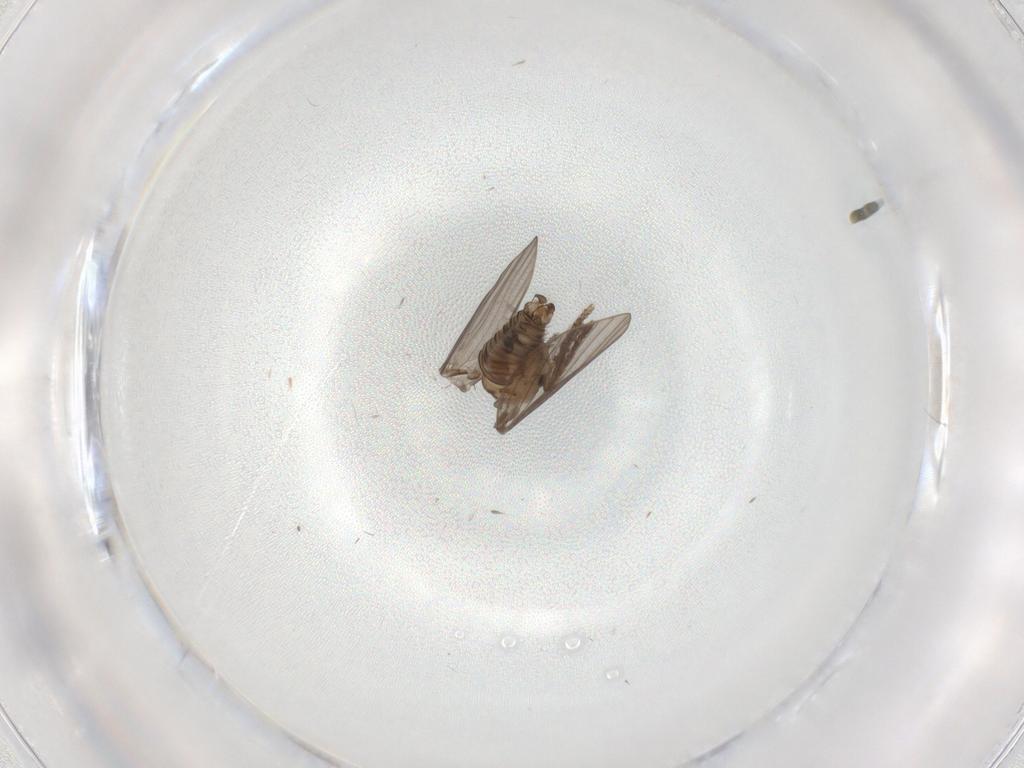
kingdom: Animalia
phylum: Arthropoda
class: Insecta
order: Diptera
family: Psychodidae
